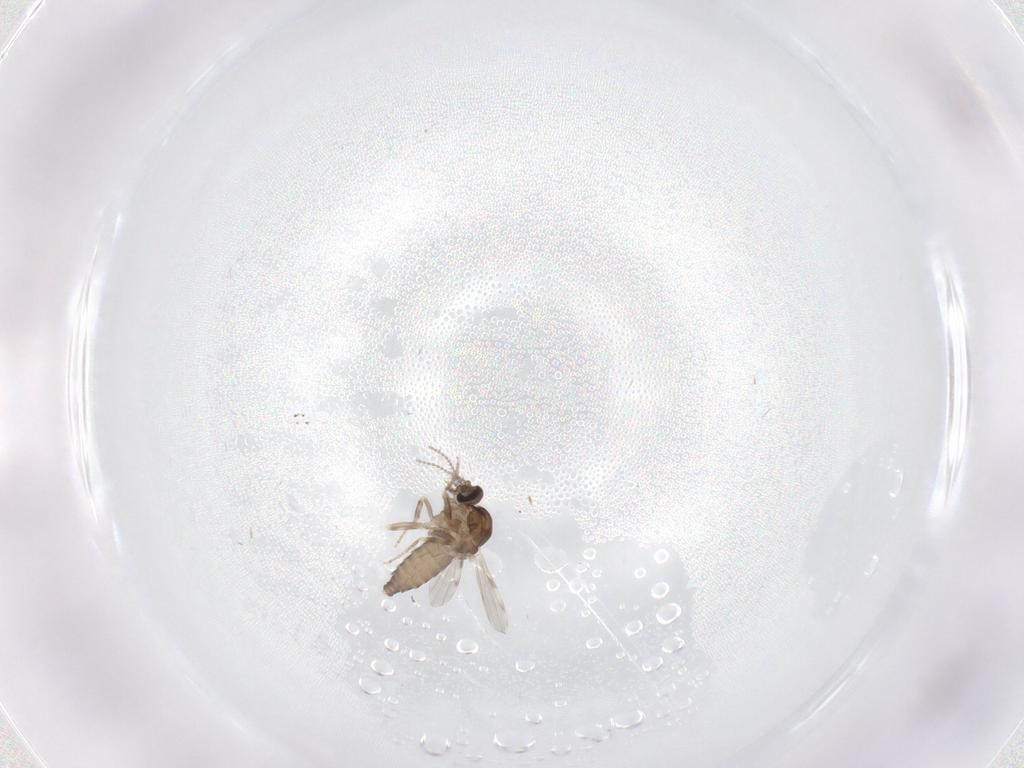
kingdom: Animalia
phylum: Arthropoda
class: Insecta
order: Diptera
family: Ceratopogonidae
